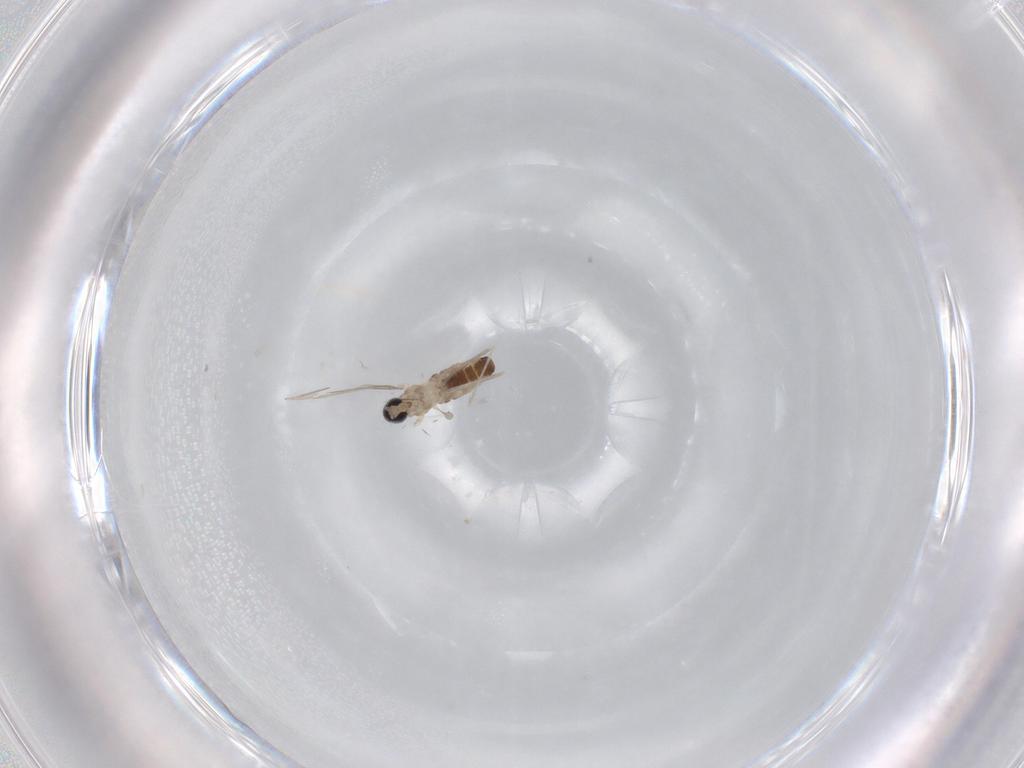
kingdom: Animalia
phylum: Arthropoda
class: Insecta
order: Diptera
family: Cecidomyiidae
